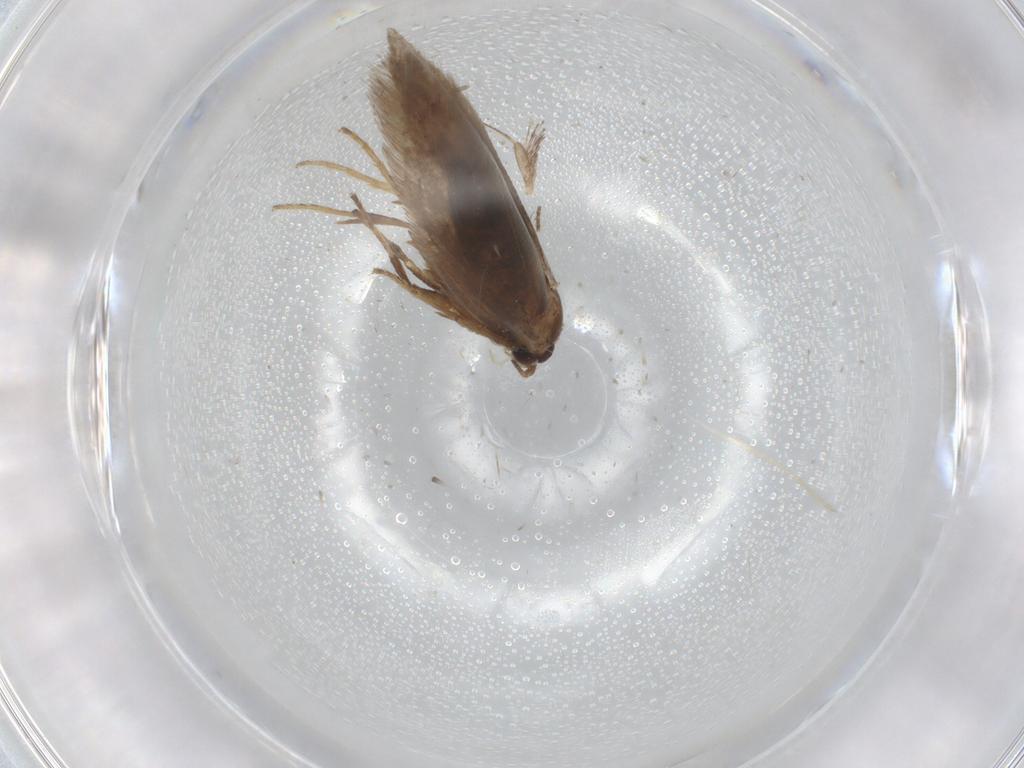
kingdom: Animalia
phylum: Arthropoda
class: Insecta
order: Lepidoptera
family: Nepticulidae
